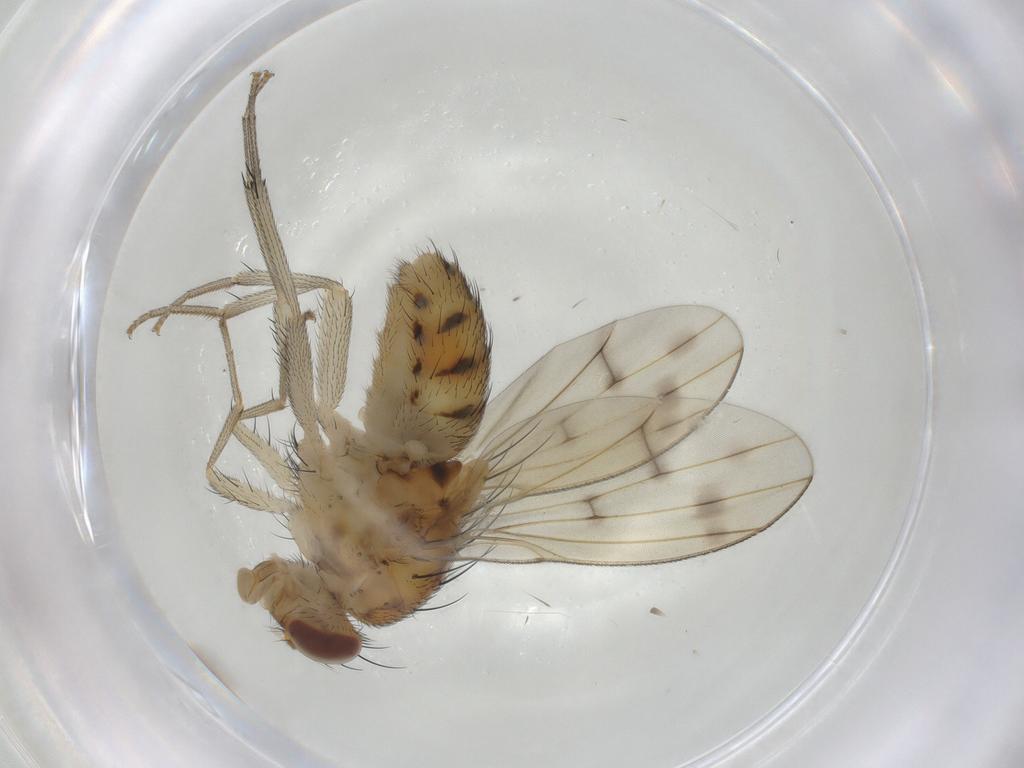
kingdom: Animalia
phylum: Arthropoda
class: Insecta
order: Lepidoptera
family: Erebidae
